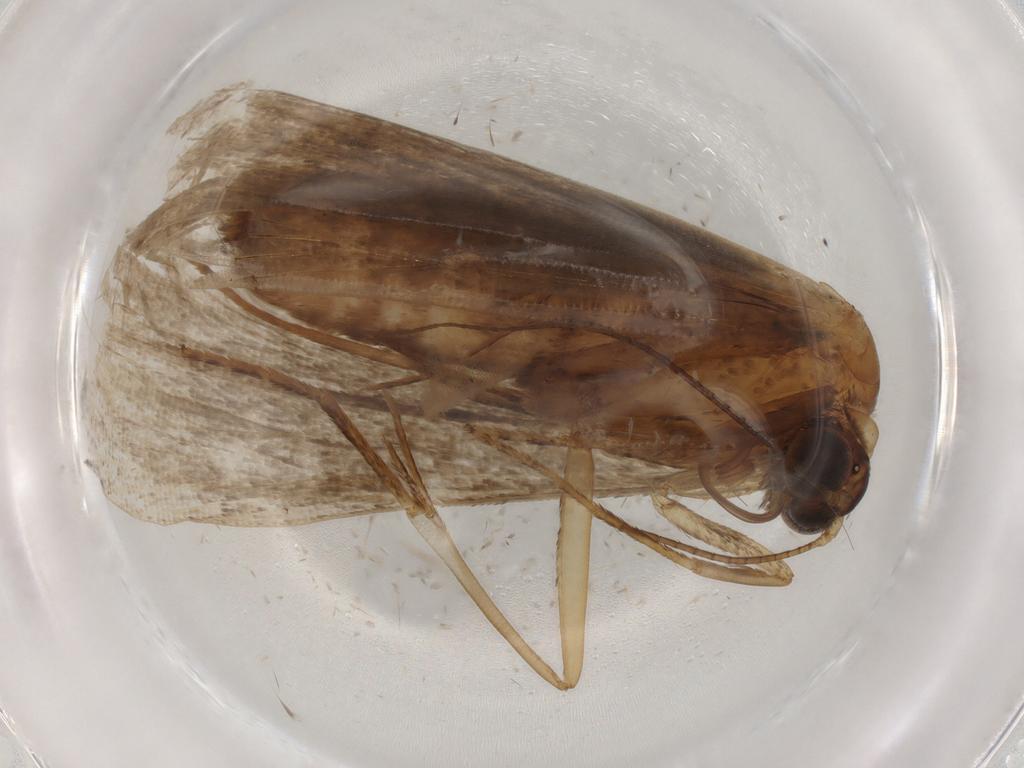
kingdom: Animalia
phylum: Arthropoda
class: Insecta
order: Lepidoptera
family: Erebidae
